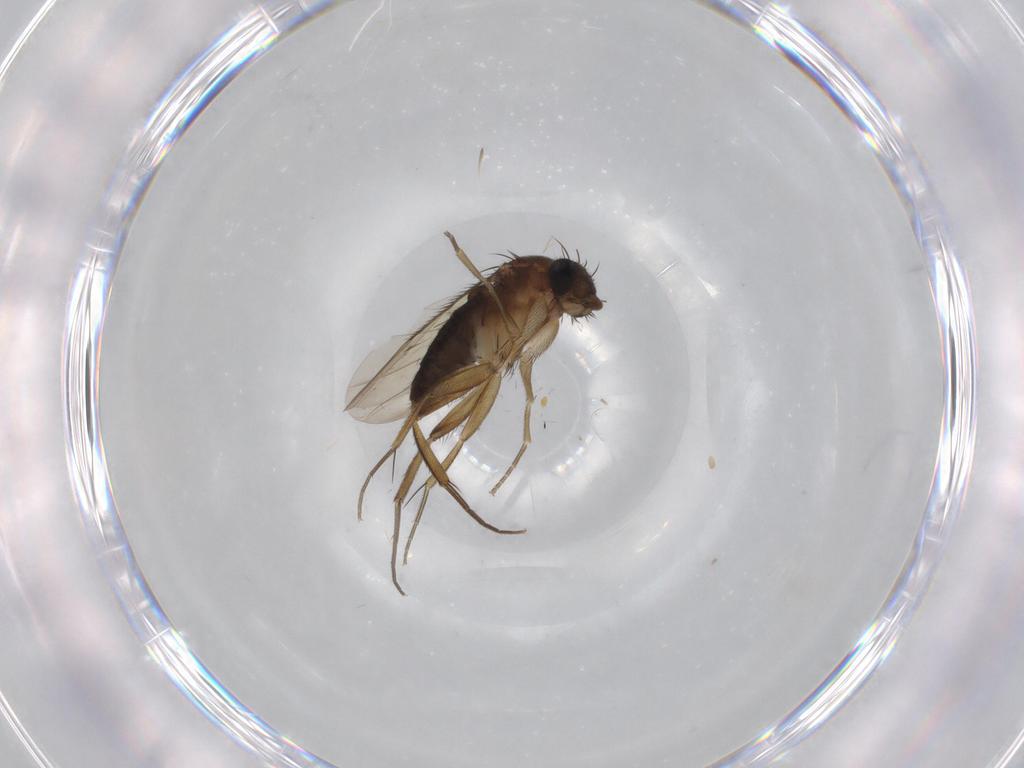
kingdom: Animalia
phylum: Arthropoda
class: Insecta
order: Diptera
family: Phoridae
